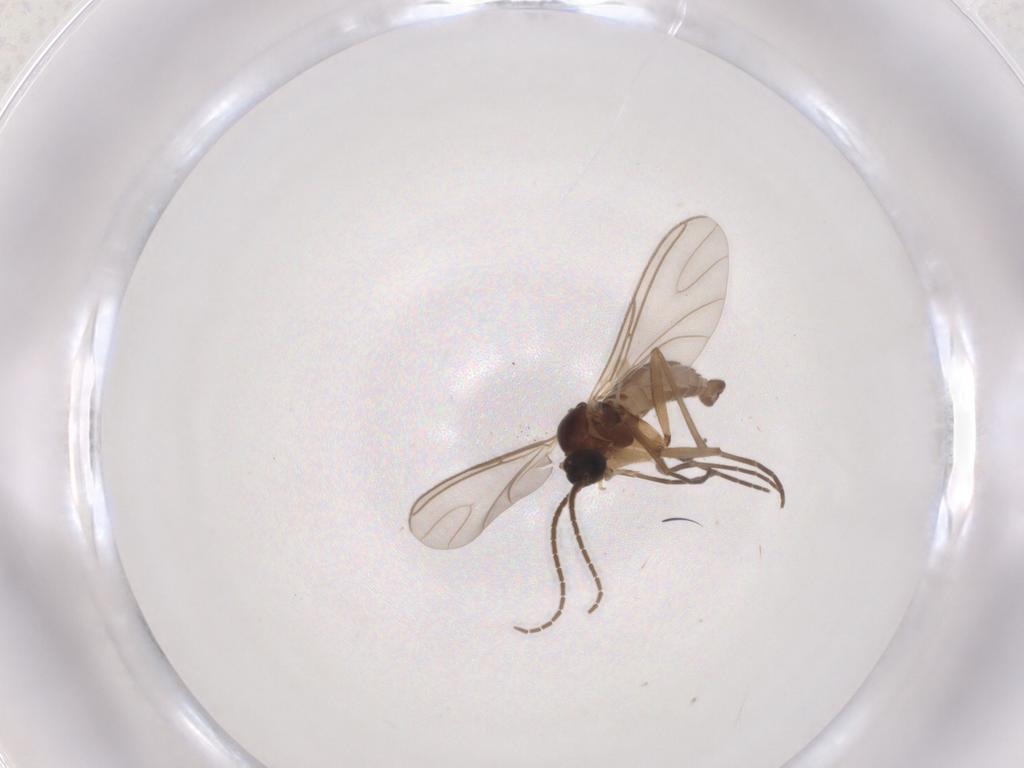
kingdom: Animalia
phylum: Arthropoda
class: Insecta
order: Diptera
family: Sciaridae
